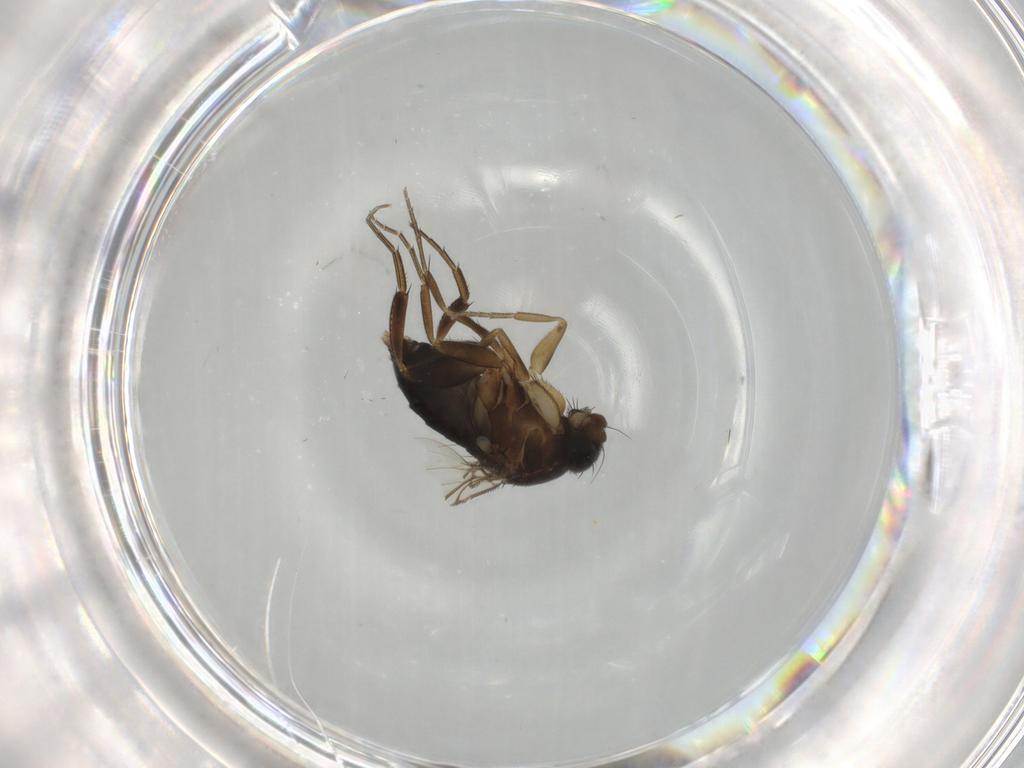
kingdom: Animalia
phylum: Arthropoda
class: Insecta
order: Diptera
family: Phoridae
